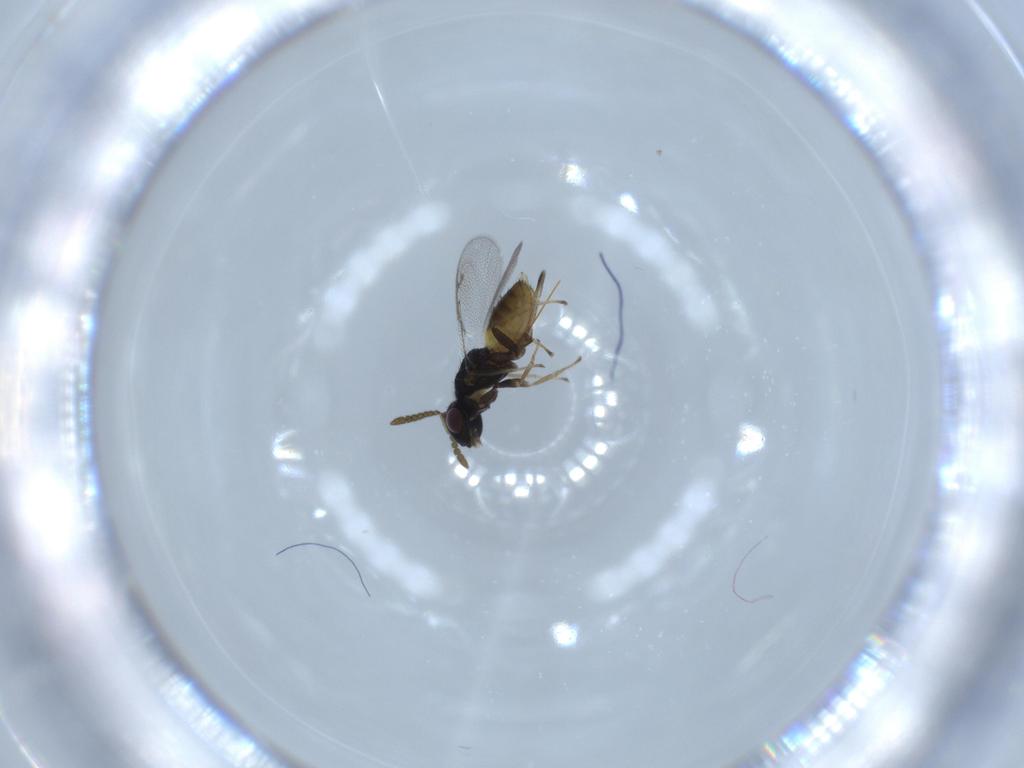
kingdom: Animalia
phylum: Arthropoda
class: Insecta
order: Hymenoptera
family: Pirenidae
